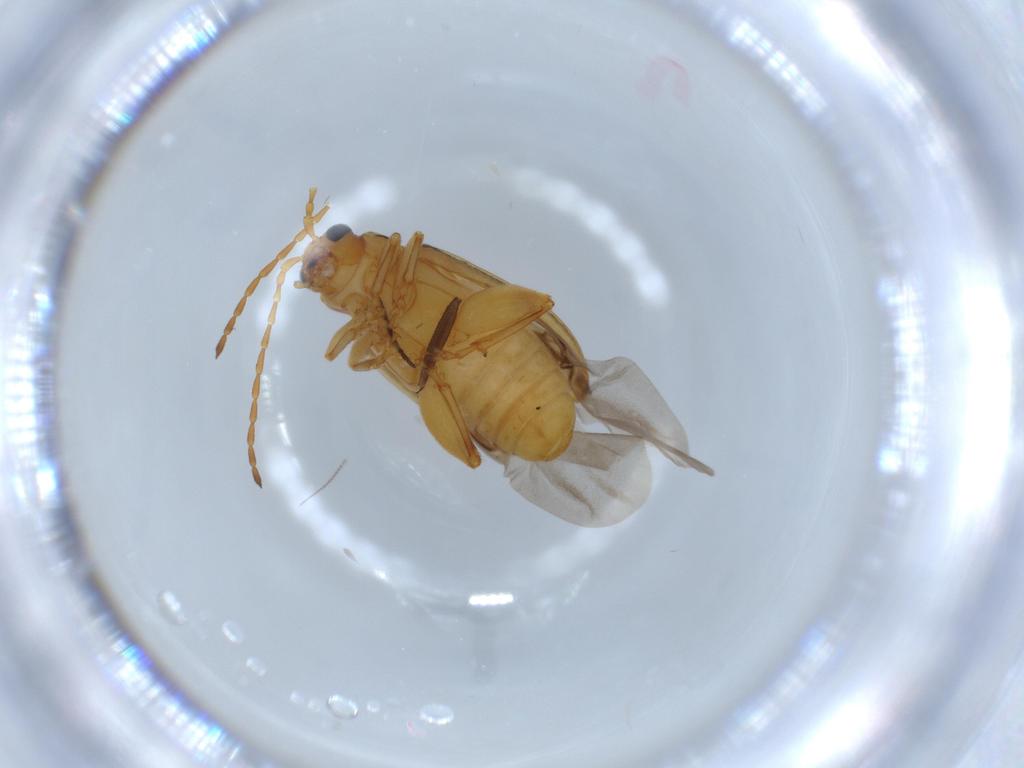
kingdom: Animalia
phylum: Arthropoda
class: Insecta
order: Coleoptera
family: Chrysomelidae
